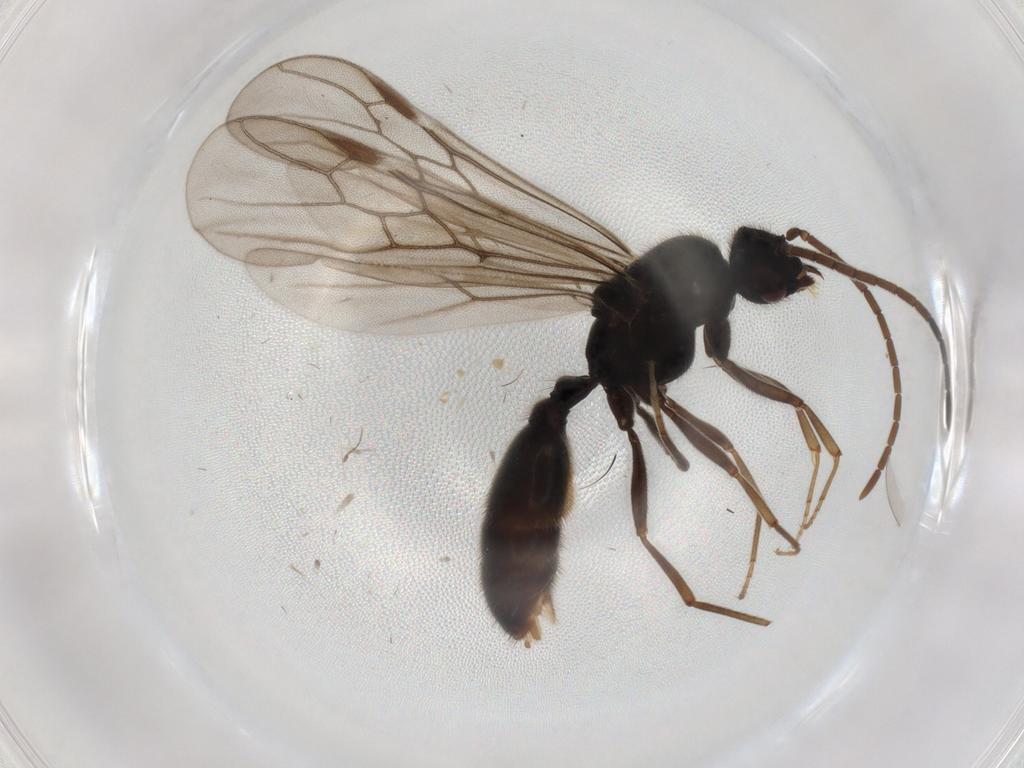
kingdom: Animalia
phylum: Arthropoda
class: Insecta
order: Hymenoptera
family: Formicidae
